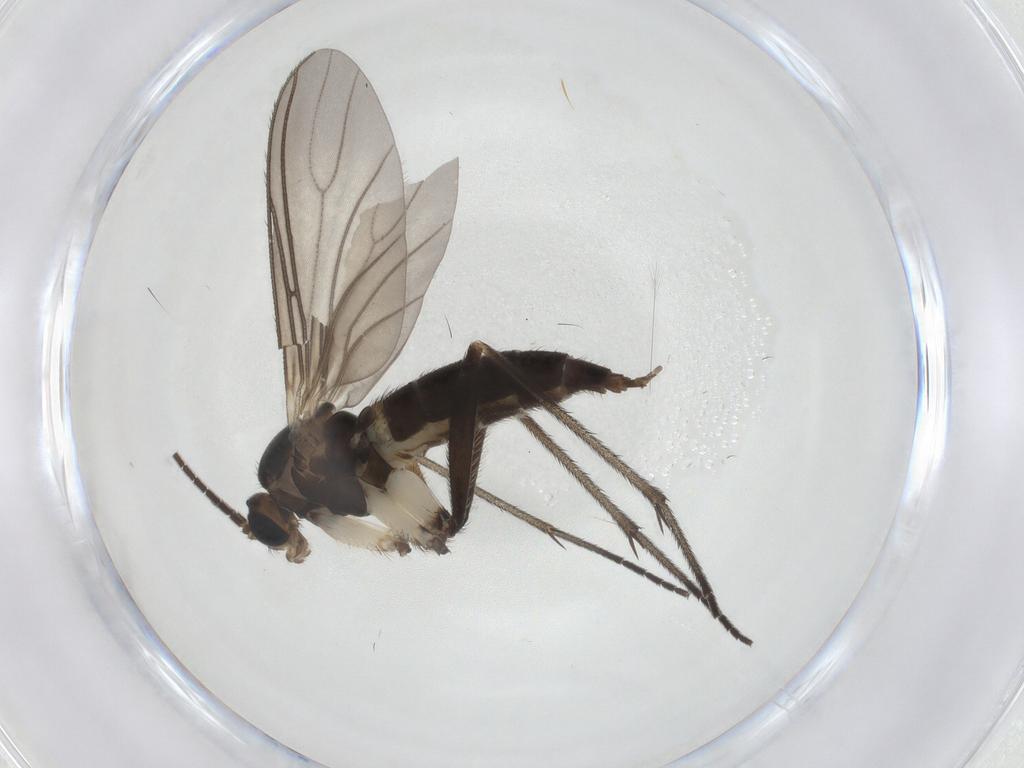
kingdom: Animalia
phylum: Arthropoda
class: Insecta
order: Diptera
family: Sciaridae
